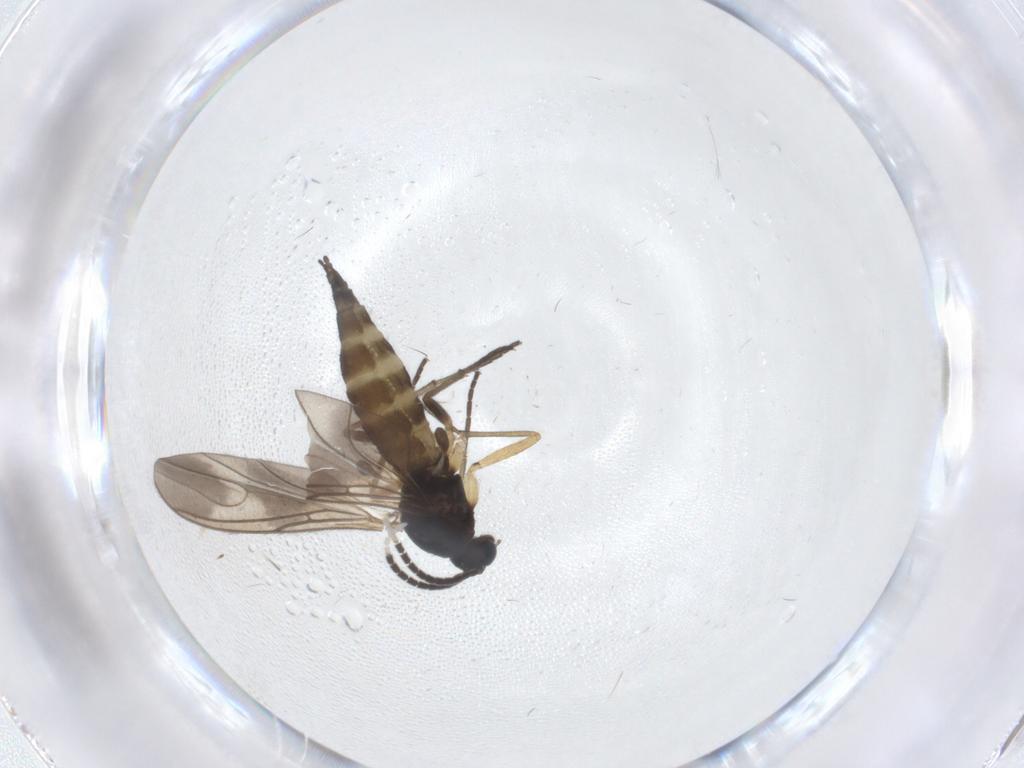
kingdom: Animalia
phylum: Arthropoda
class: Insecta
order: Diptera
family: Sciaridae
